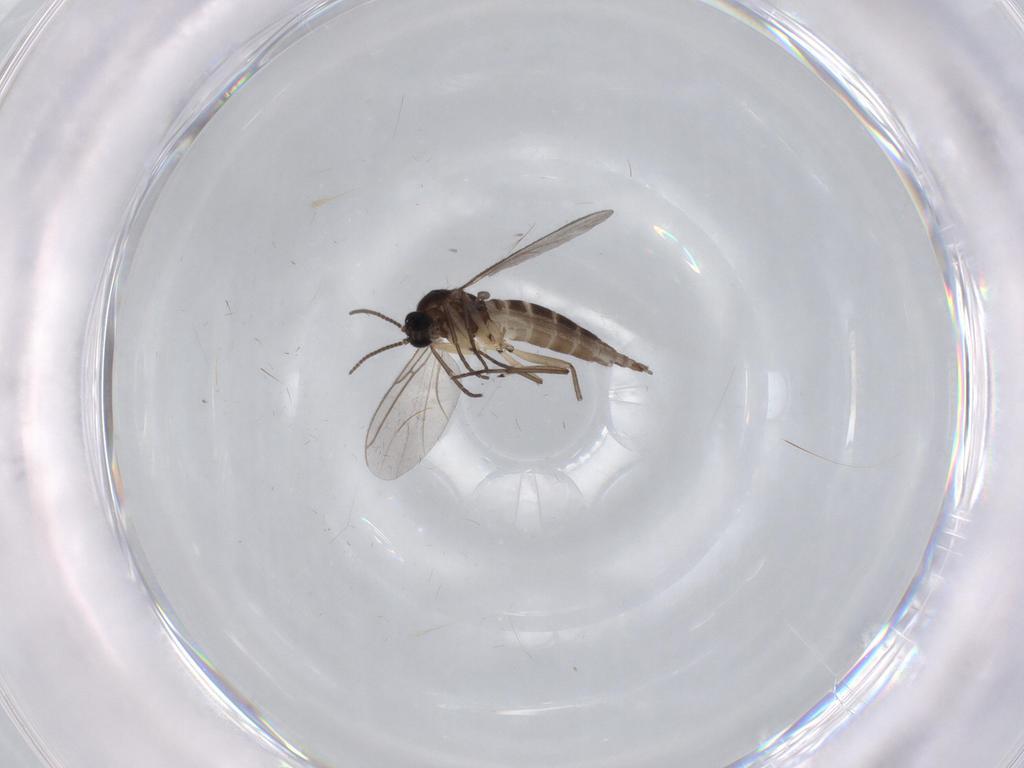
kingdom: Animalia
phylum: Arthropoda
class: Insecta
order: Diptera
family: Sciaridae
